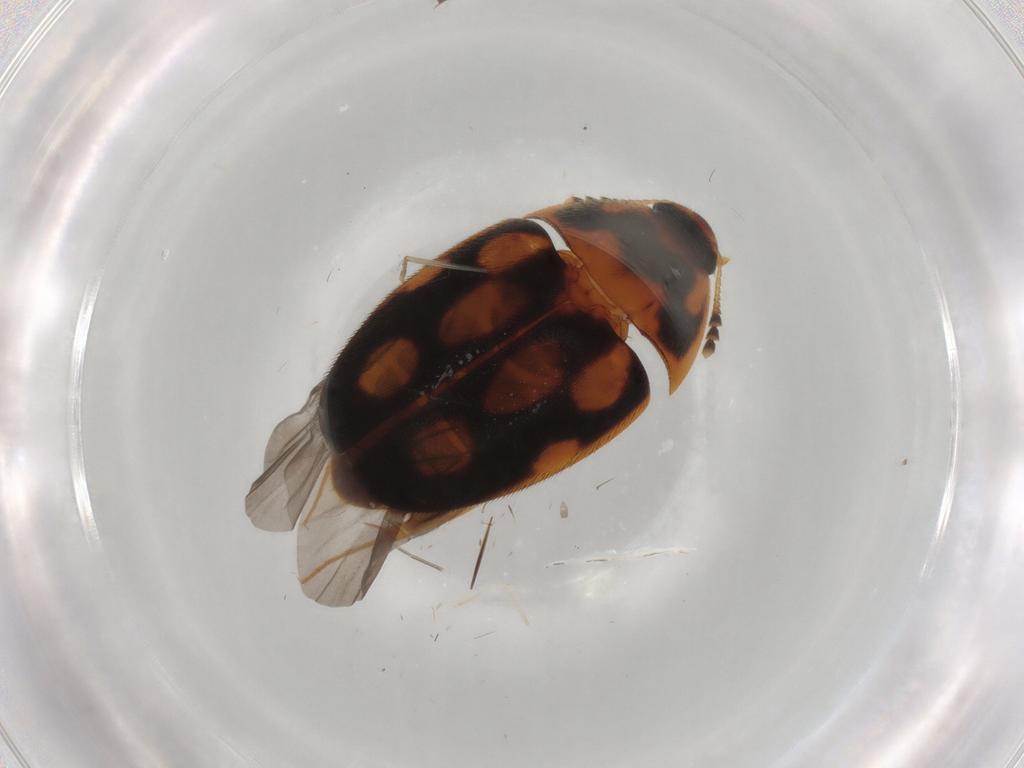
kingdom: Animalia
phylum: Arthropoda
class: Insecta
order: Coleoptera
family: Mycetophagidae
